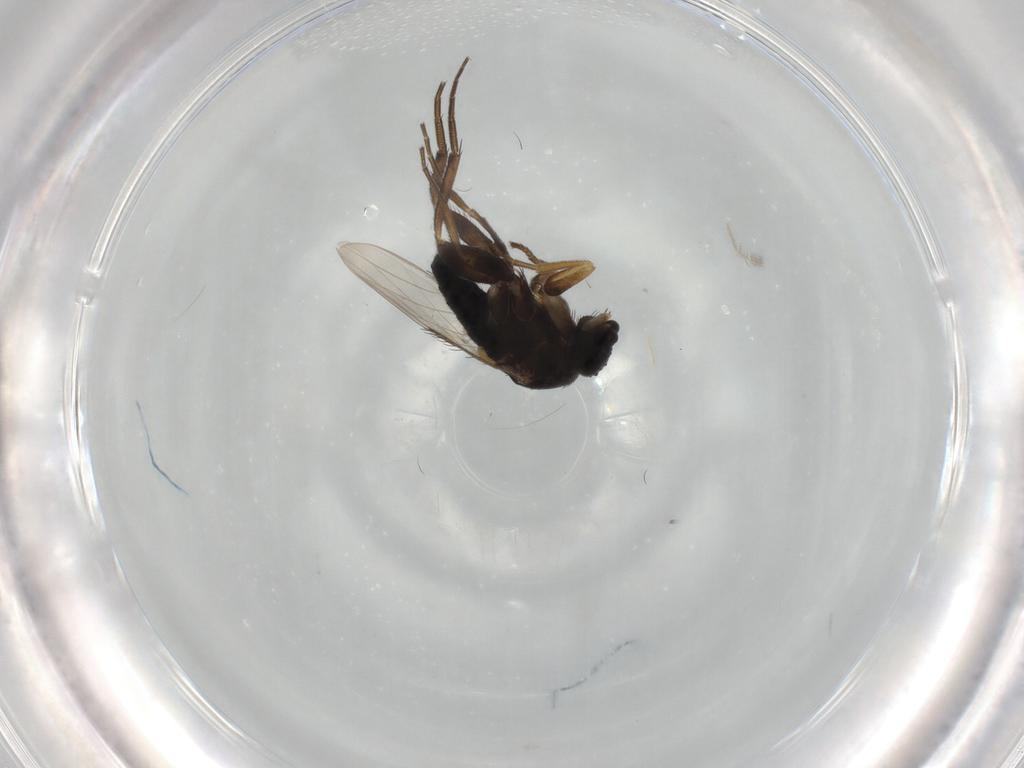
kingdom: Animalia
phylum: Arthropoda
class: Insecta
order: Diptera
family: Phoridae
